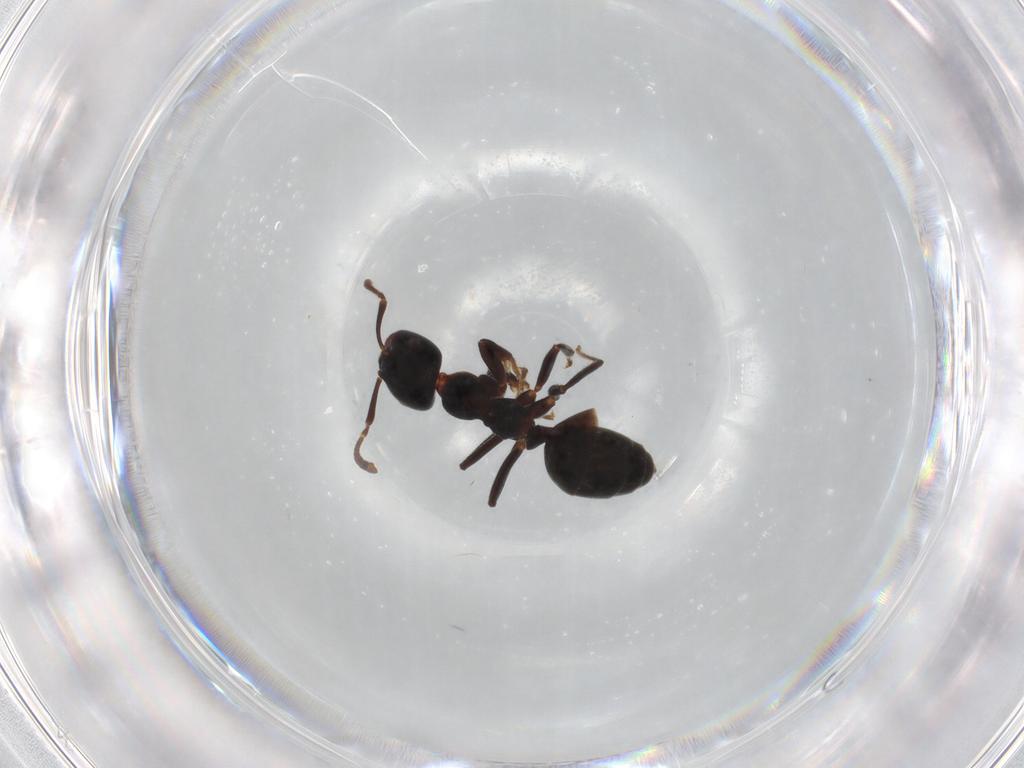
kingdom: Animalia
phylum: Arthropoda
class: Insecta
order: Hymenoptera
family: Formicidae
